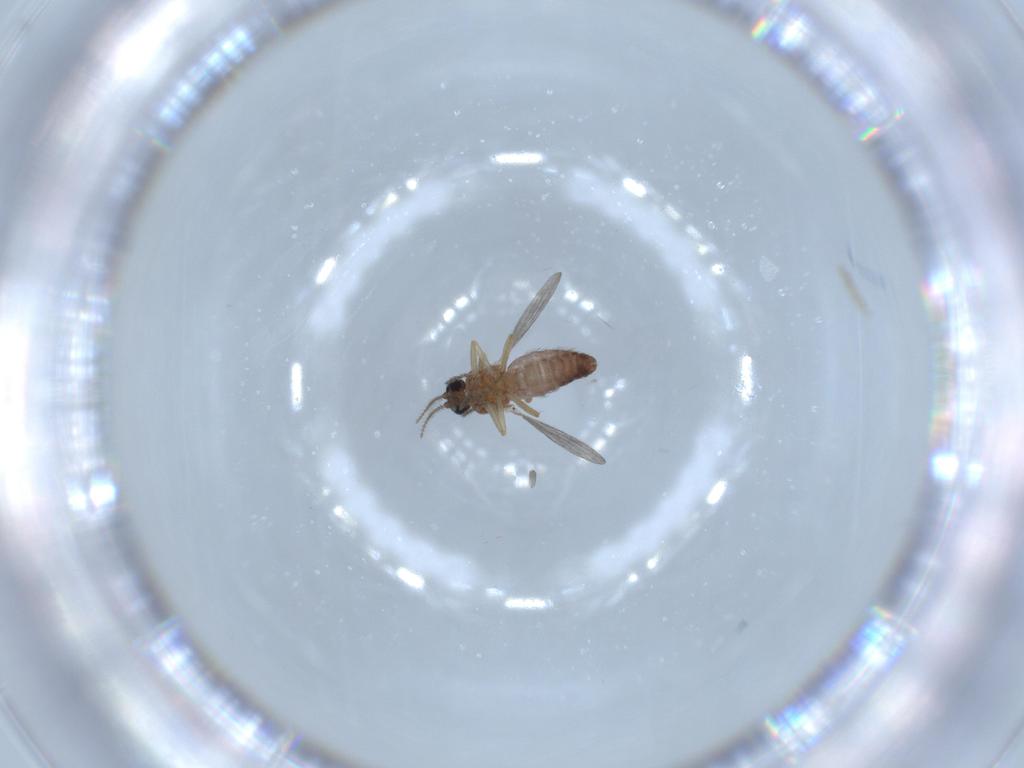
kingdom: Animalia
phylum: Arthropoda
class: Insecta
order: Diptera
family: Ceratopogonidae
